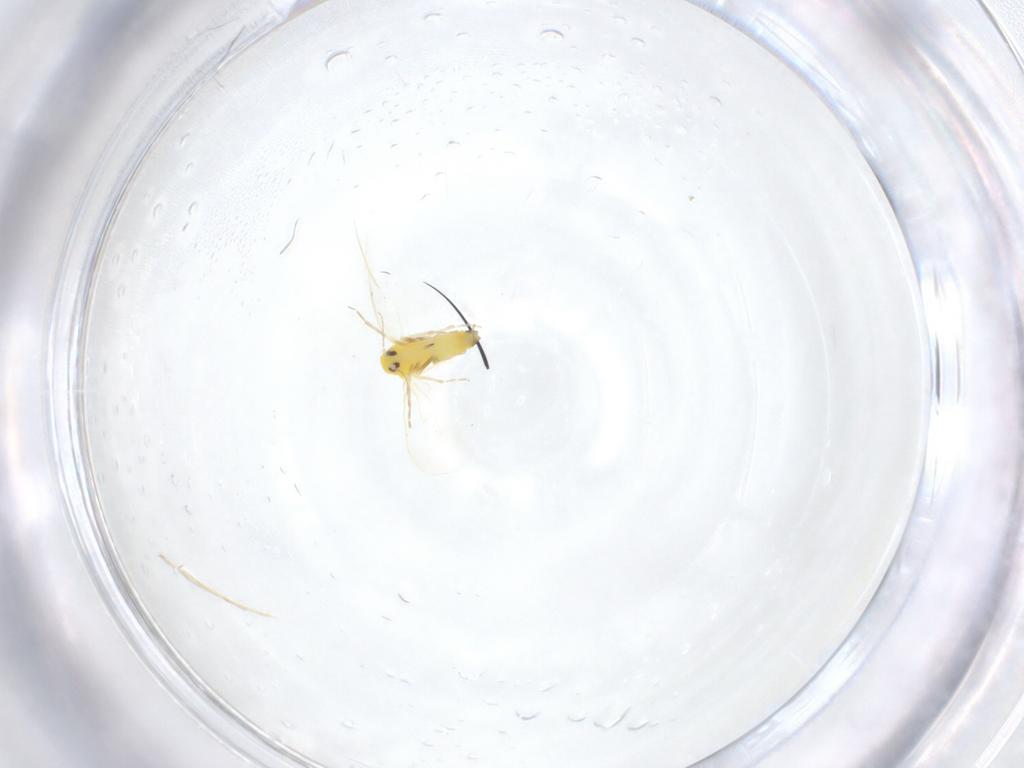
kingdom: Animalia
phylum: Arthropoda
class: Insecta
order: Hemiptera
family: Aleyrodidae
